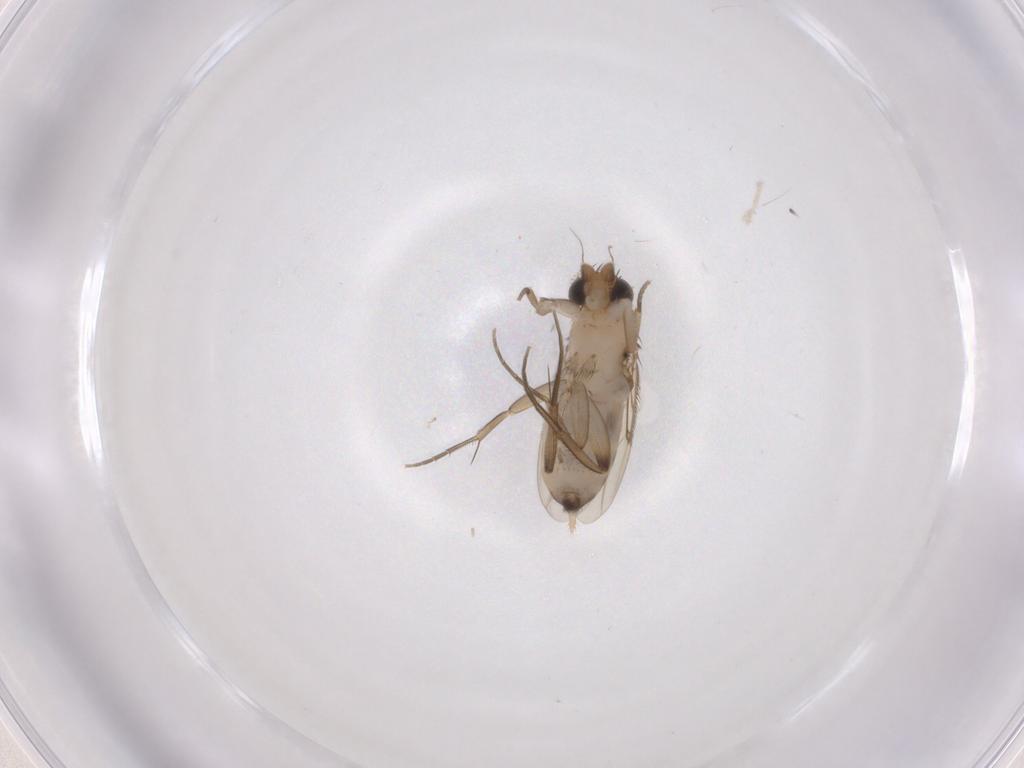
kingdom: Animalia
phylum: Arthropoda
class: Insecta
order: Diptera
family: Phoridae
